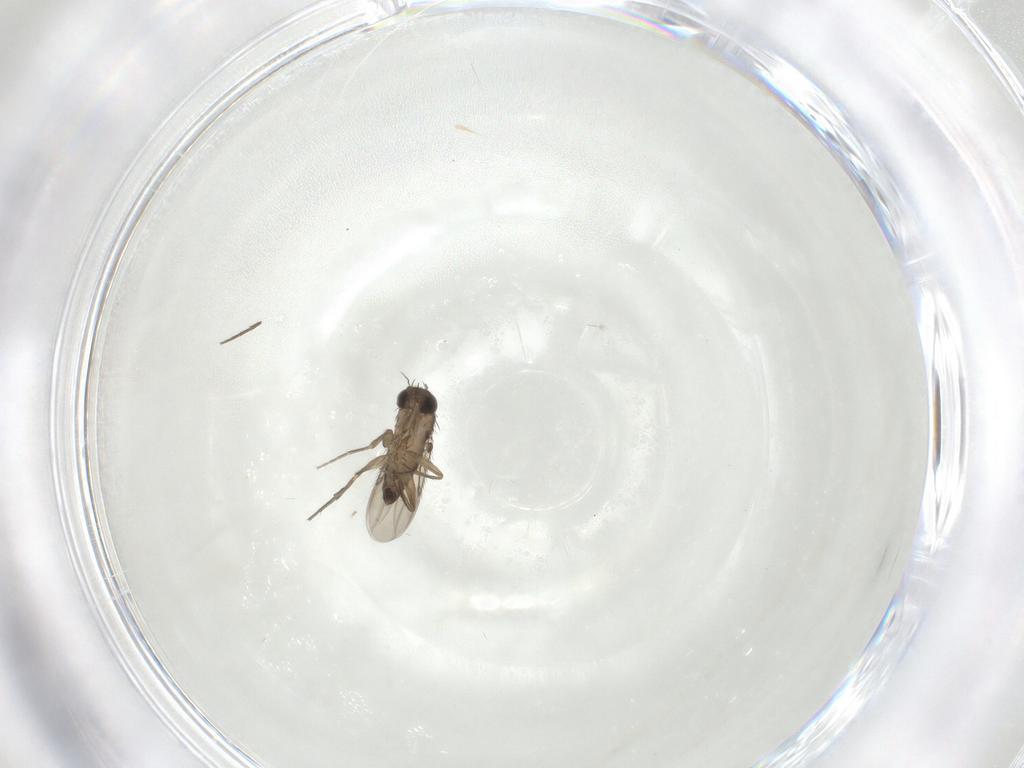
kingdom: Animalia
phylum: Arthropoda
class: Insecta
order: Diptera
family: Phoridae
